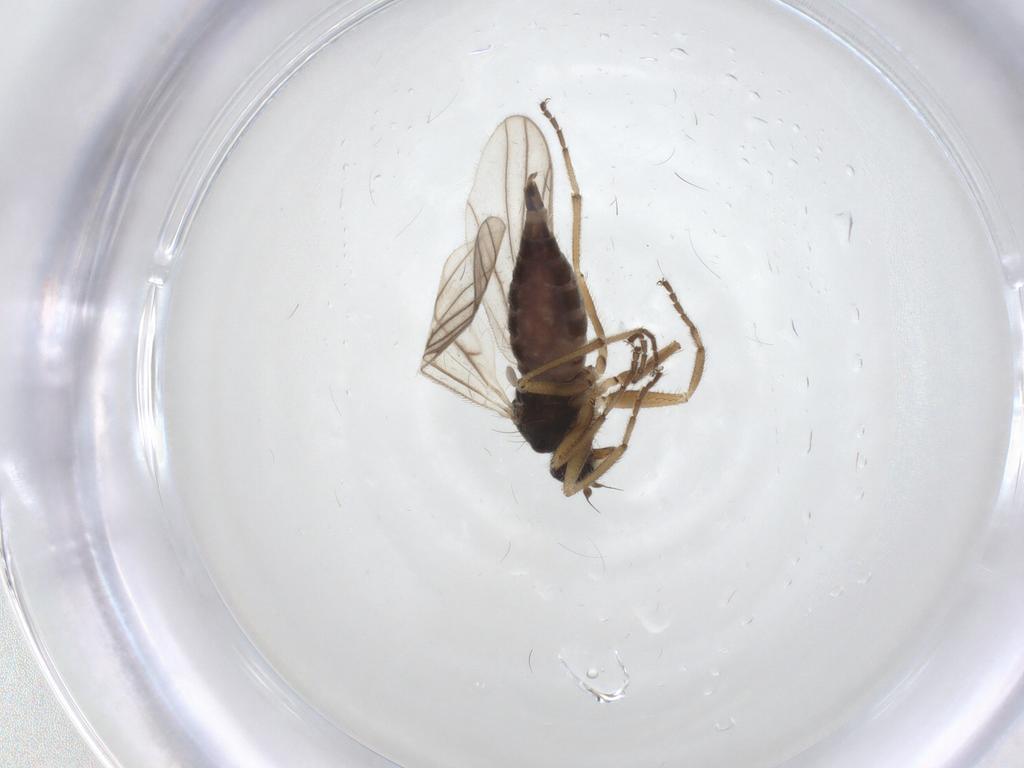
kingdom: Animalia
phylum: Arthropoda
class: Insecta
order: Diptera
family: Hybotidae
